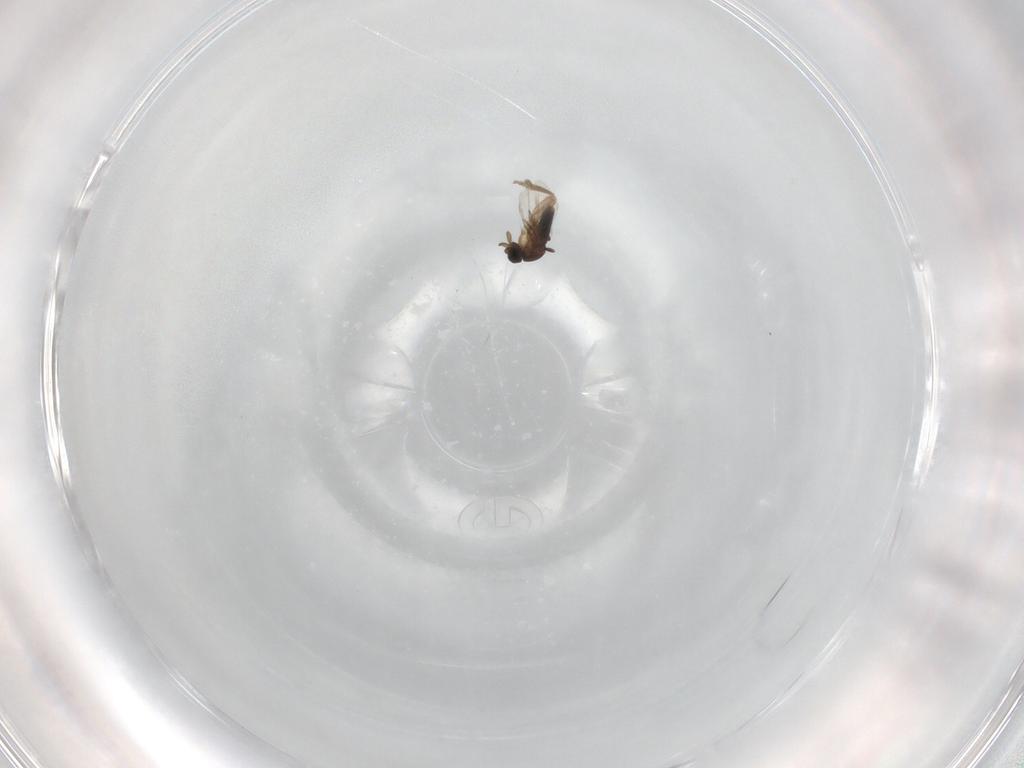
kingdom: Animalia
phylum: Arthropoda
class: Insecta
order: Diptera
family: Phoridae
